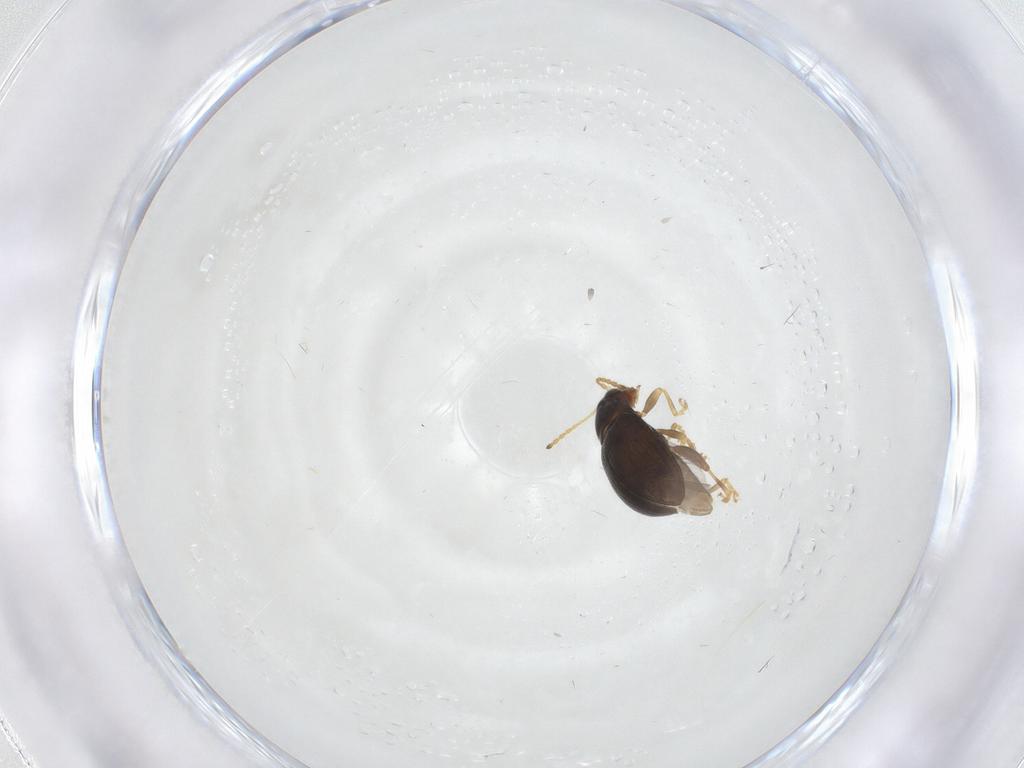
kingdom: Animalia
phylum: Arthropoda
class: Insecta
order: Coleoptera
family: Chrysomelidae
